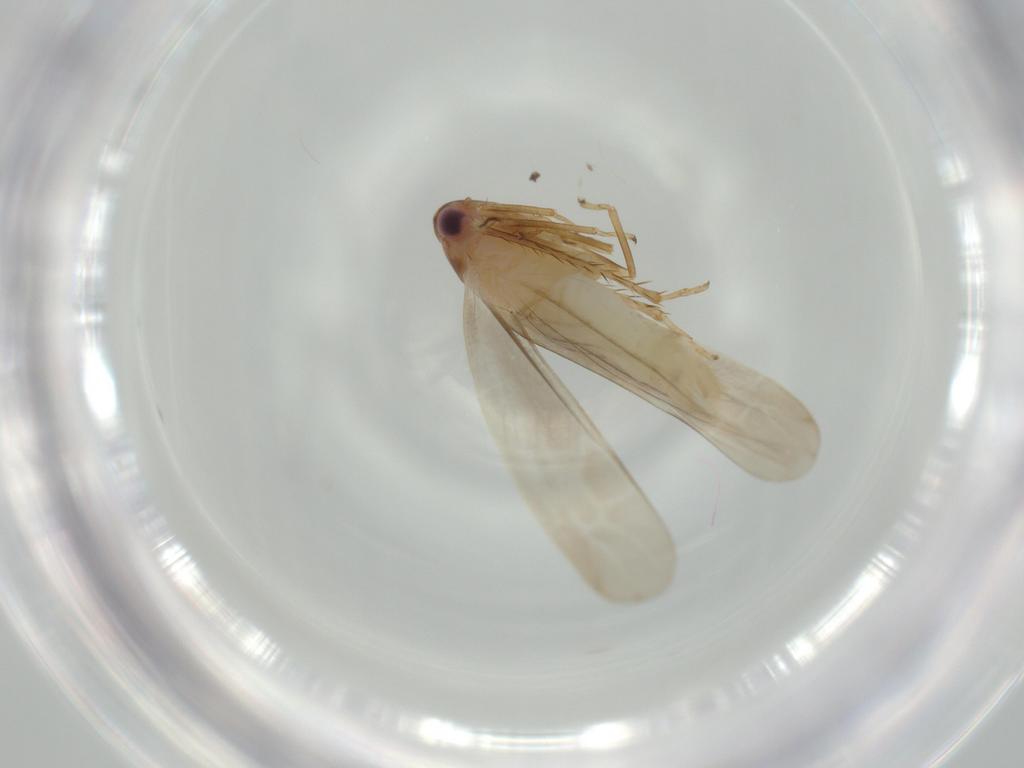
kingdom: Animalia
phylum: Arthropoda
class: Insecta
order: Hemiptera
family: Cicadellidae
